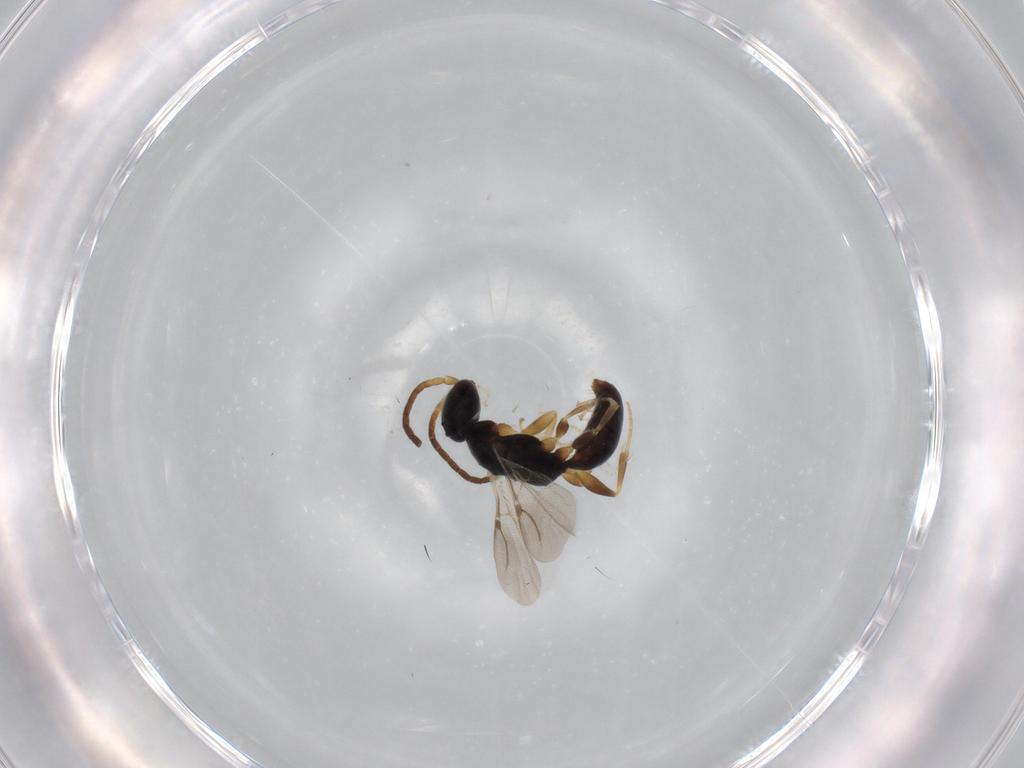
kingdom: Animalia
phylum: Arthropoda
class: Insecta
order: Hymenoptera
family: Bethylidae
